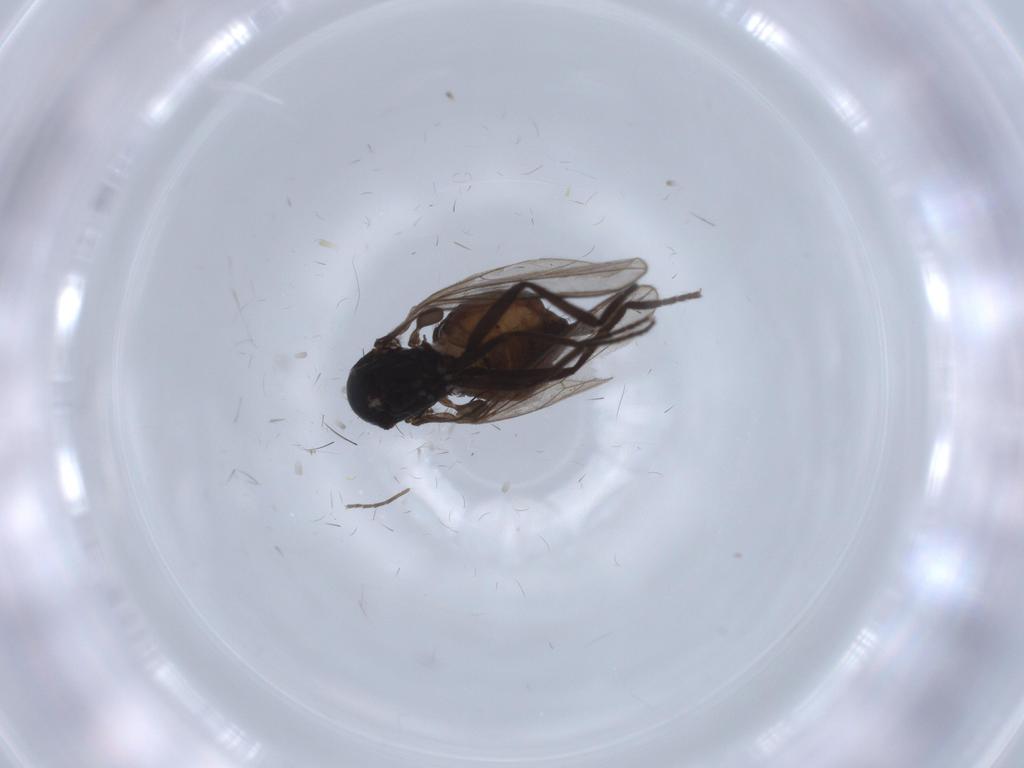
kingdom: Animalia
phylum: Arthropoda
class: Insecta
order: Diptera
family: Dolichopodidae
